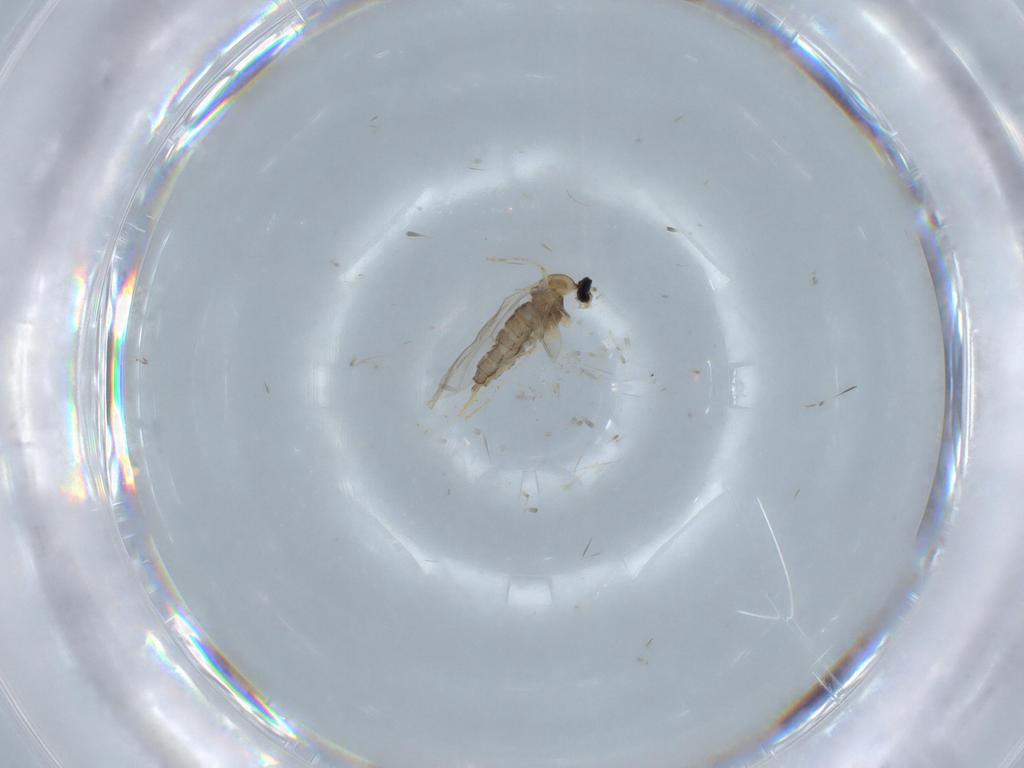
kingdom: Animalia
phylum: Arthropoda
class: Insecta
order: Diptera
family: Cecidomyiidae
